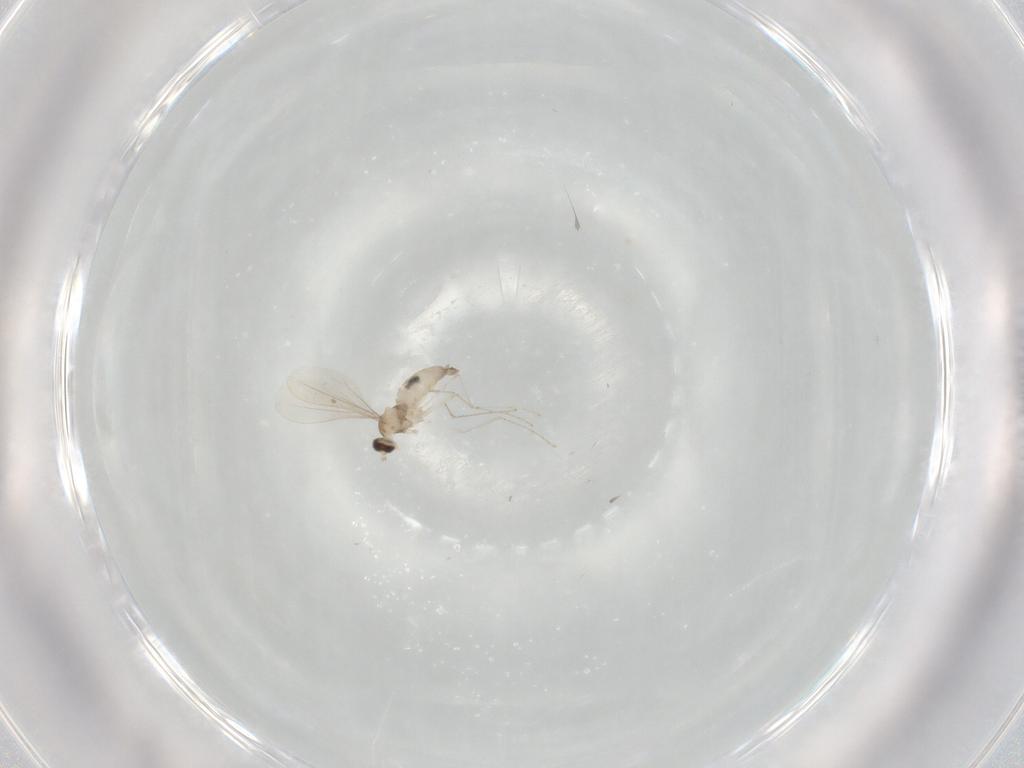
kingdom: Animalia
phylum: Arthropoda
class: Insecta
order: Diptera
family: Cecidomyiidae
